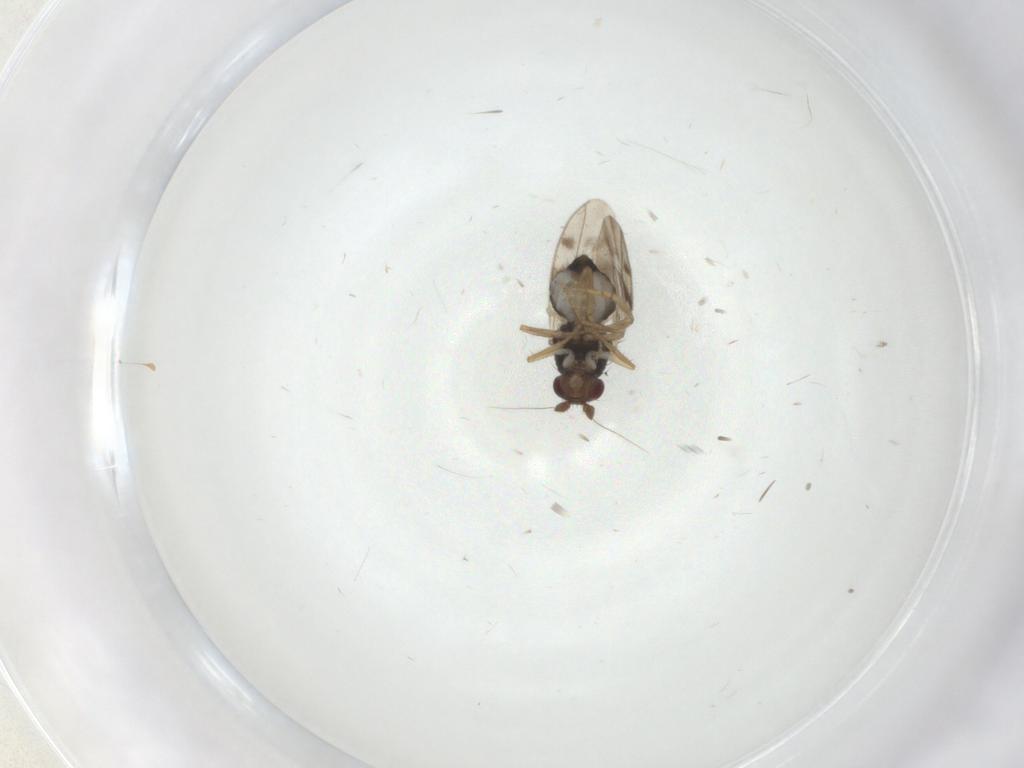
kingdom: Animalia
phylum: Arthropoda
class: Insecta
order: Diptera
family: Sphaeroceridae
